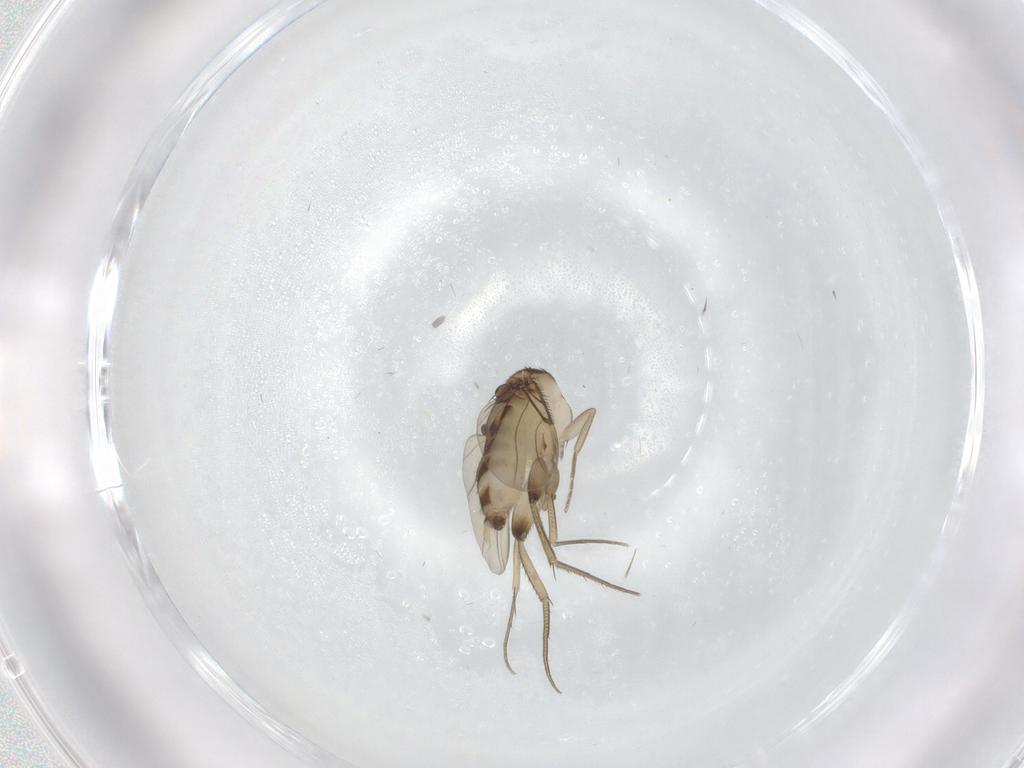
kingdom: Animalia
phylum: Arthropoda
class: Insecta
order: Diptera
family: Phoridae
